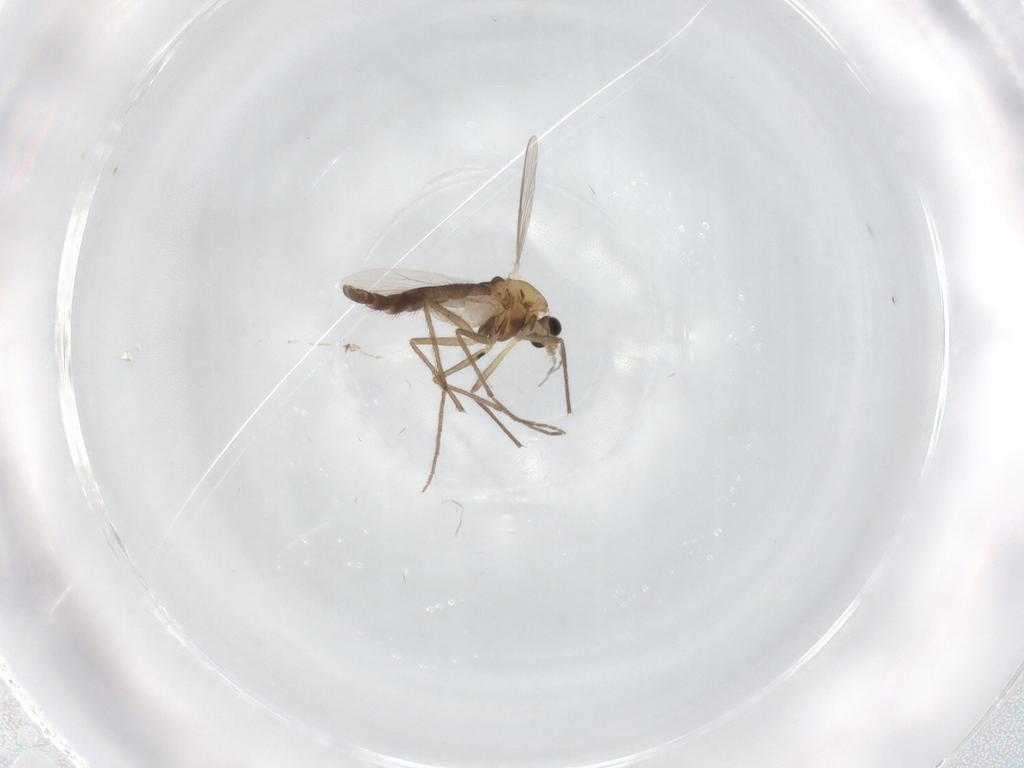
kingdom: Animalia
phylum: Arthropoda
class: Insecta
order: Diptera
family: Chironomidae
